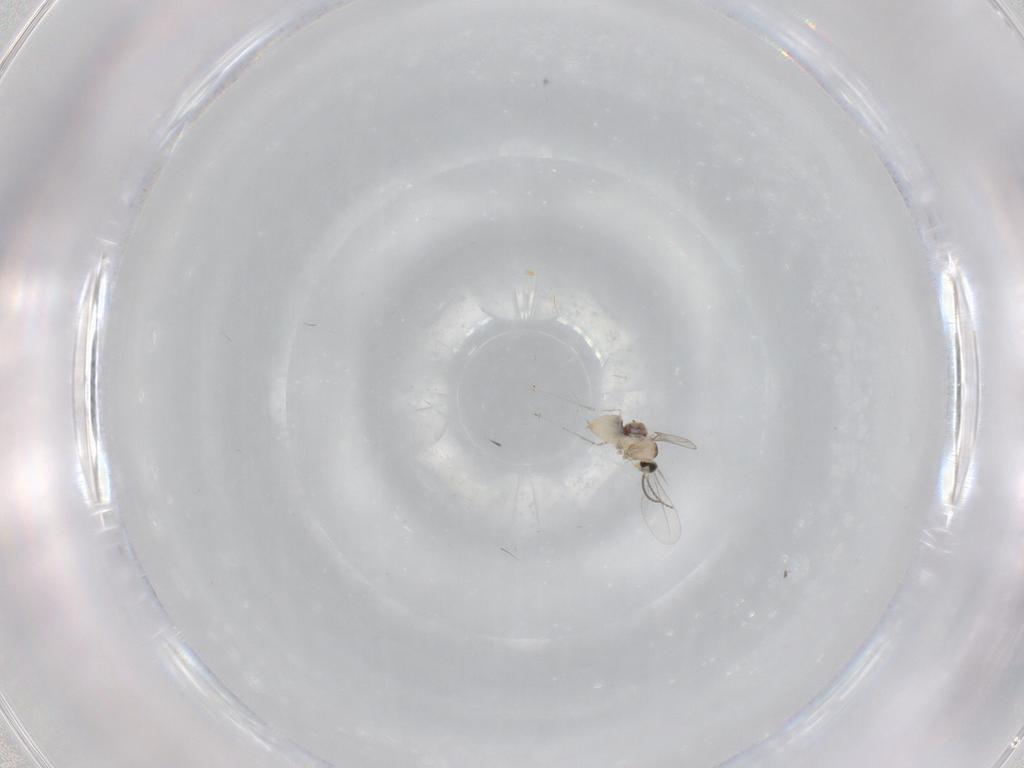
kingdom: Animalia
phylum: Arthropoda
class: Insecta
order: Diptera
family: Cecidomyiidae
